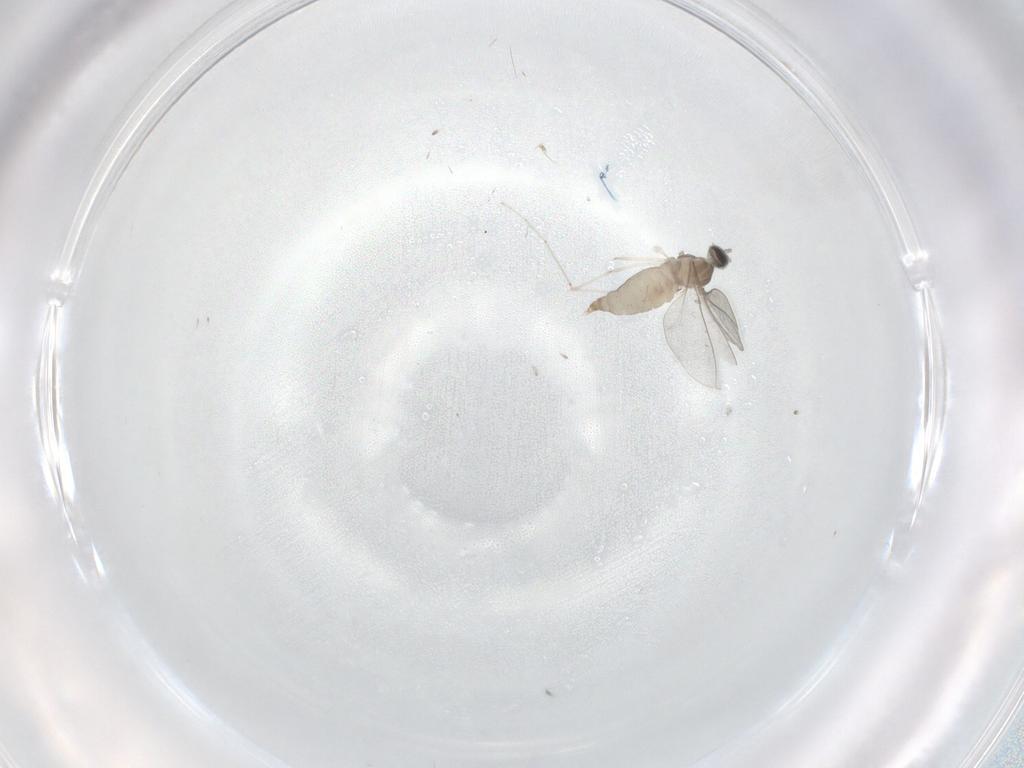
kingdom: Animalia
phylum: Arthropoda
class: Insecta
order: Diptera
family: Cecidomyiidae
